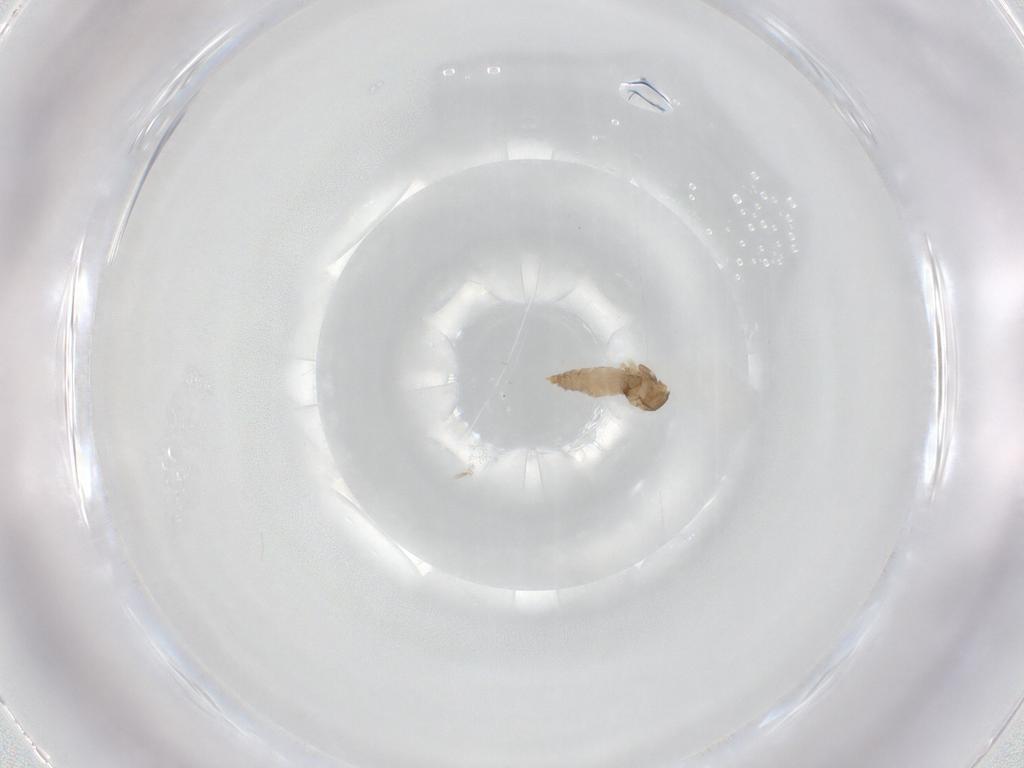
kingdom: Animalia
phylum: Arthropoda
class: Insecta
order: Diptera
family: Cecidomyiidae
